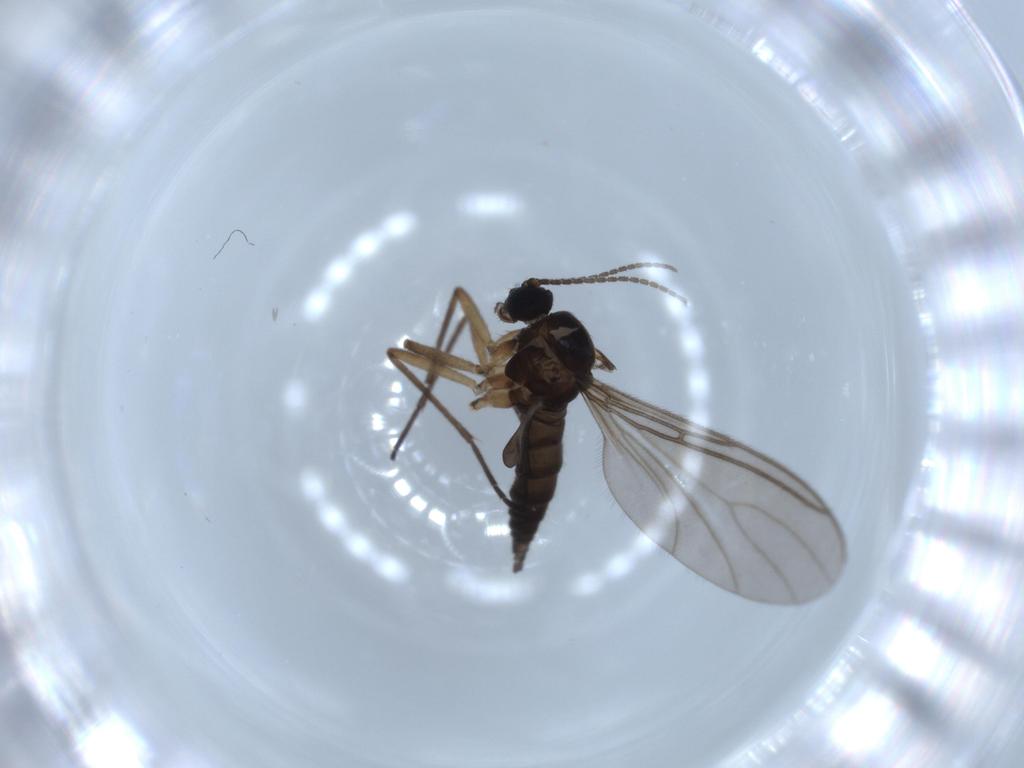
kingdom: Animalia
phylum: Arthropoda
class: Insecta
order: Diptera
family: Sciaridae
